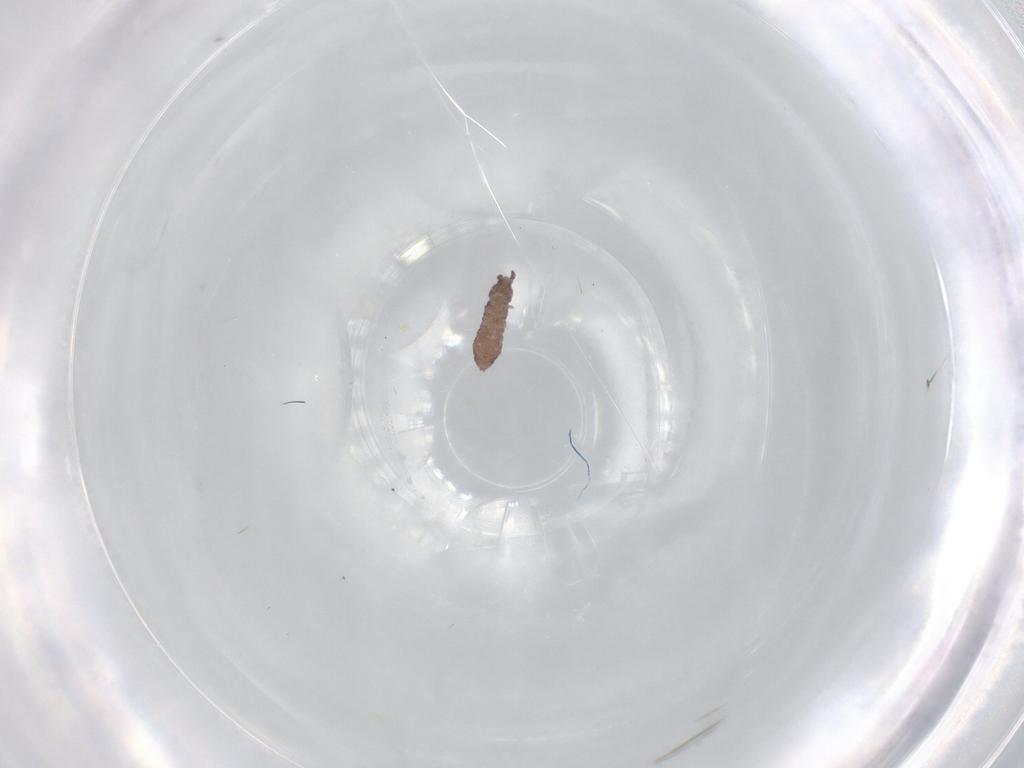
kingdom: Animalia
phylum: Arthropoda
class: Collembola
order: Poduromorpha
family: Hypogastruridae
